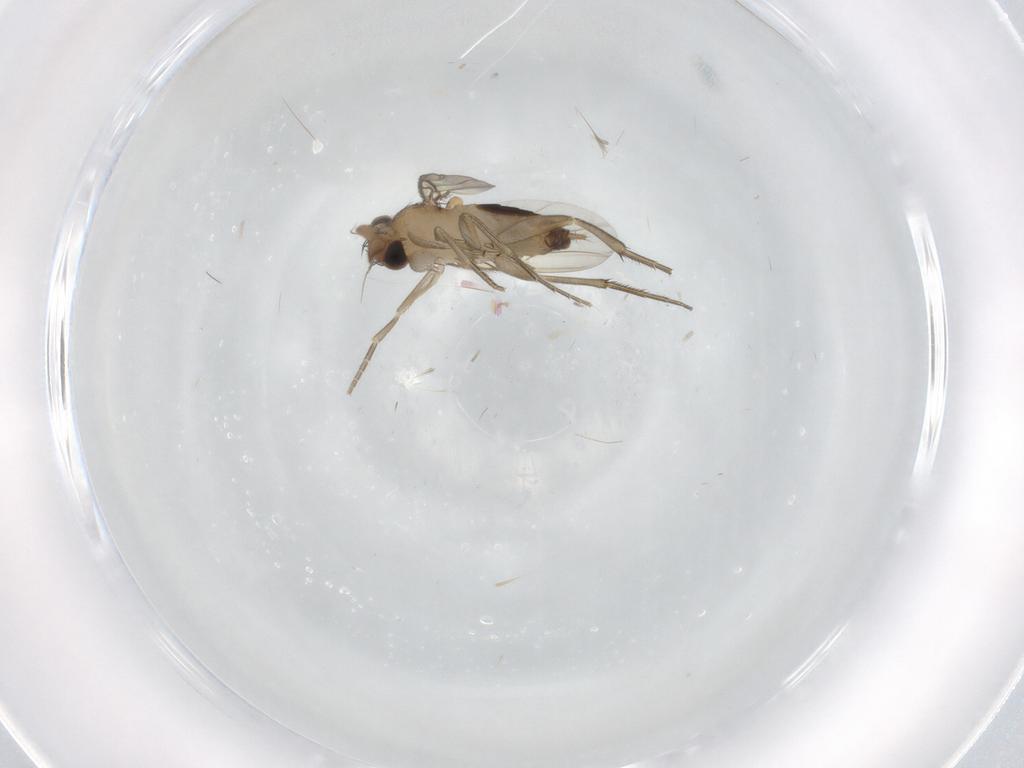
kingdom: Animalia
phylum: Arthropoda
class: Insecta
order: Diptera
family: Phoridae
